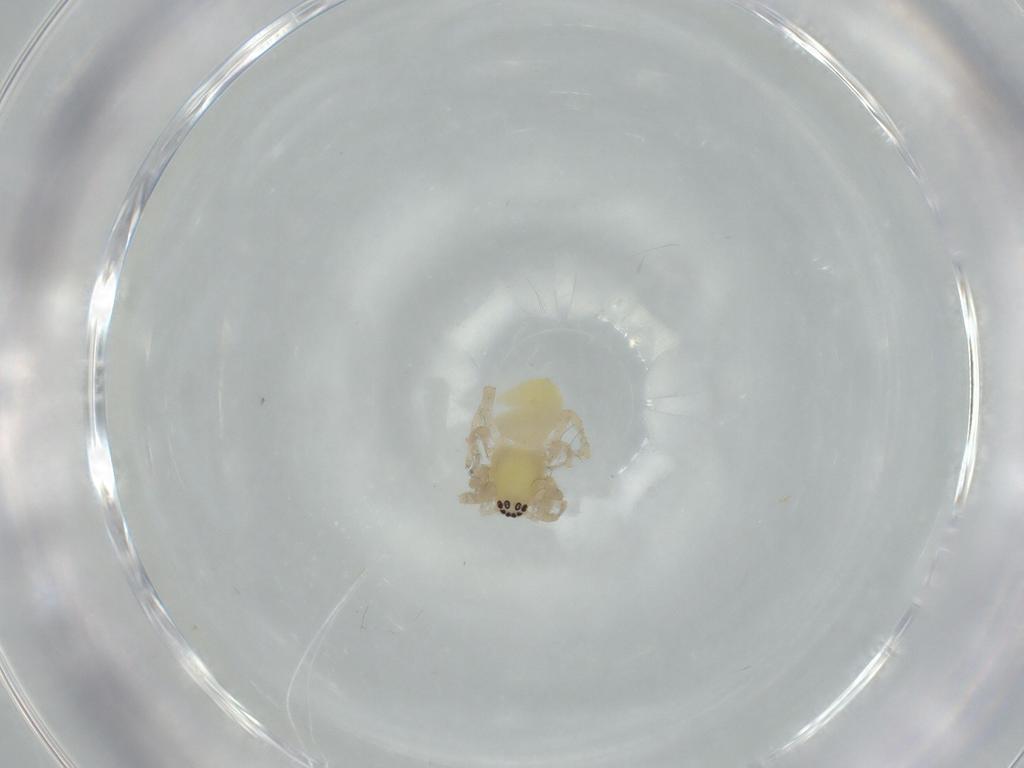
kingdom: Animalia
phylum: Arthropoda
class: Arachnida
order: Araneae
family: Anyphaenidae
